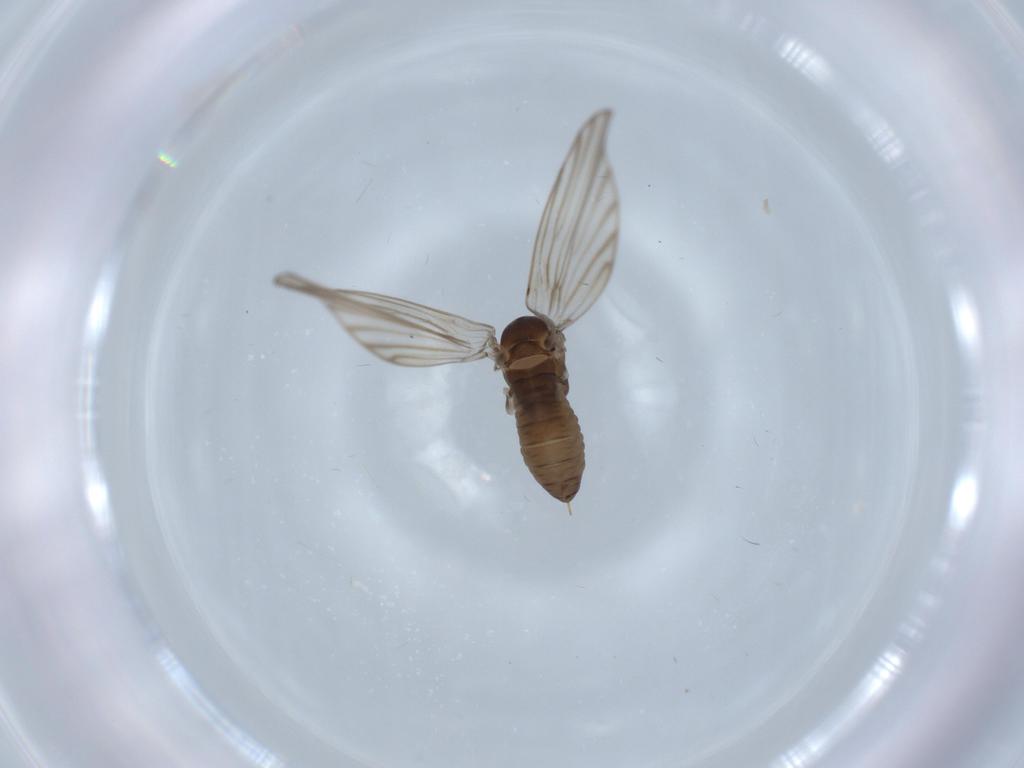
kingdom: Animalia
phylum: Arthropoda
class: Insecta
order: Diptera
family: Psychodidae
